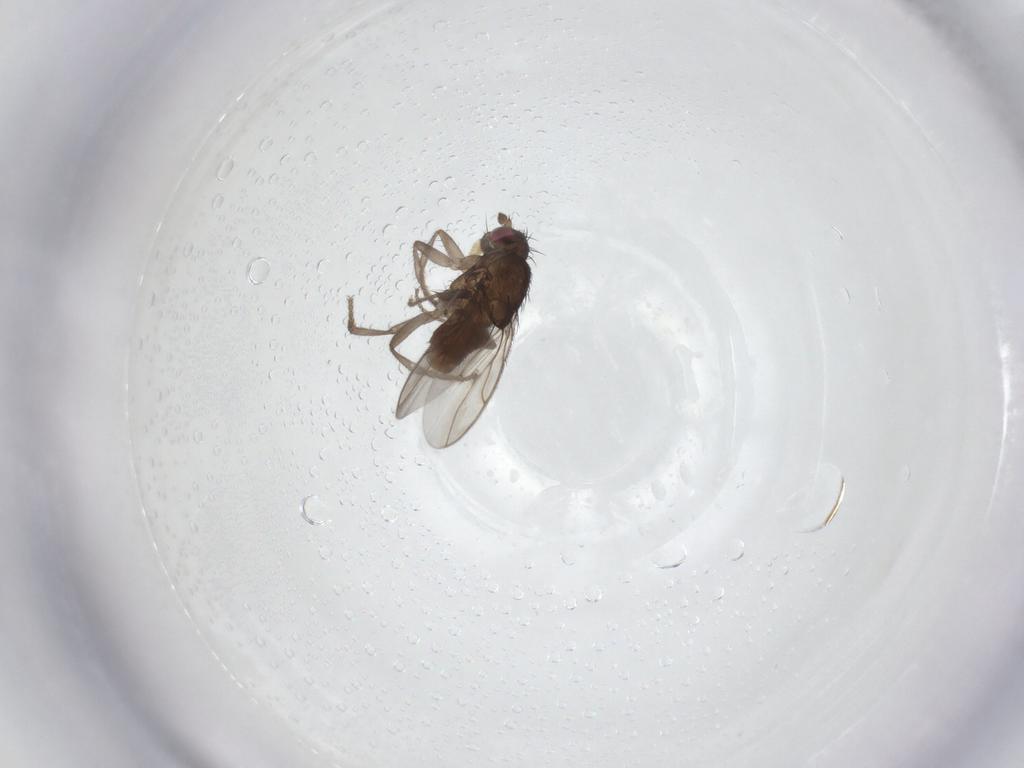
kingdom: Animalia
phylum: Arthropoda
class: Insecta
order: Diptera
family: Sphaeroceridae
